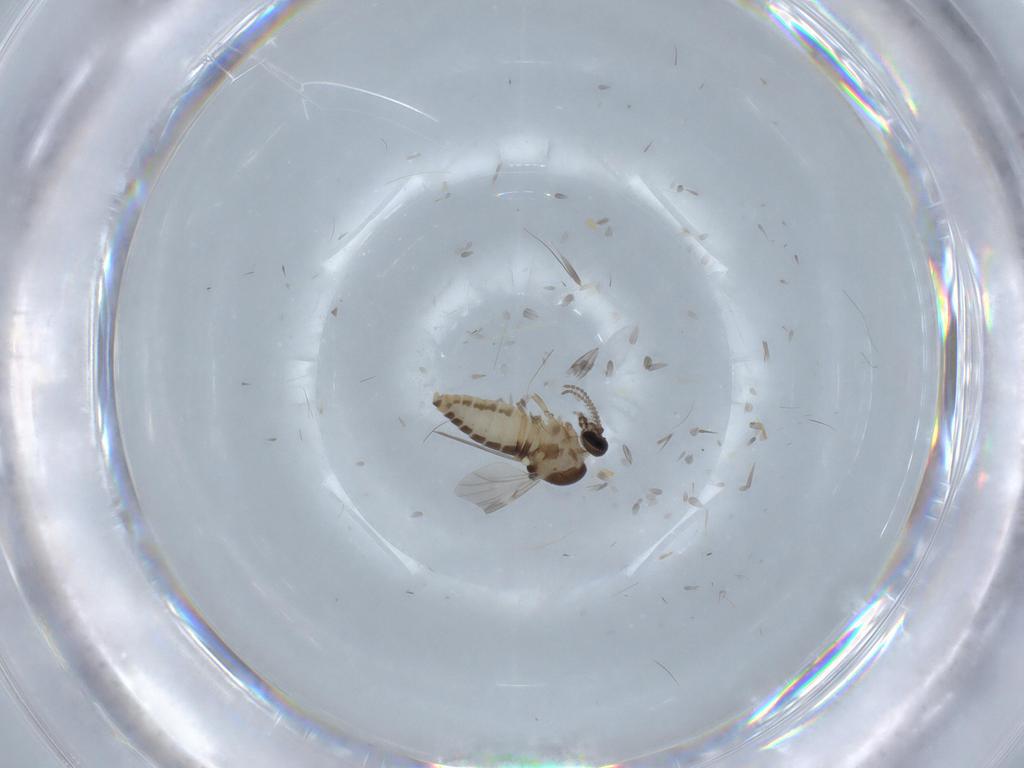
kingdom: Animalia
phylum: Arthropoda
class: Insecta
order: Diptera
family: Ceratopogonidae
